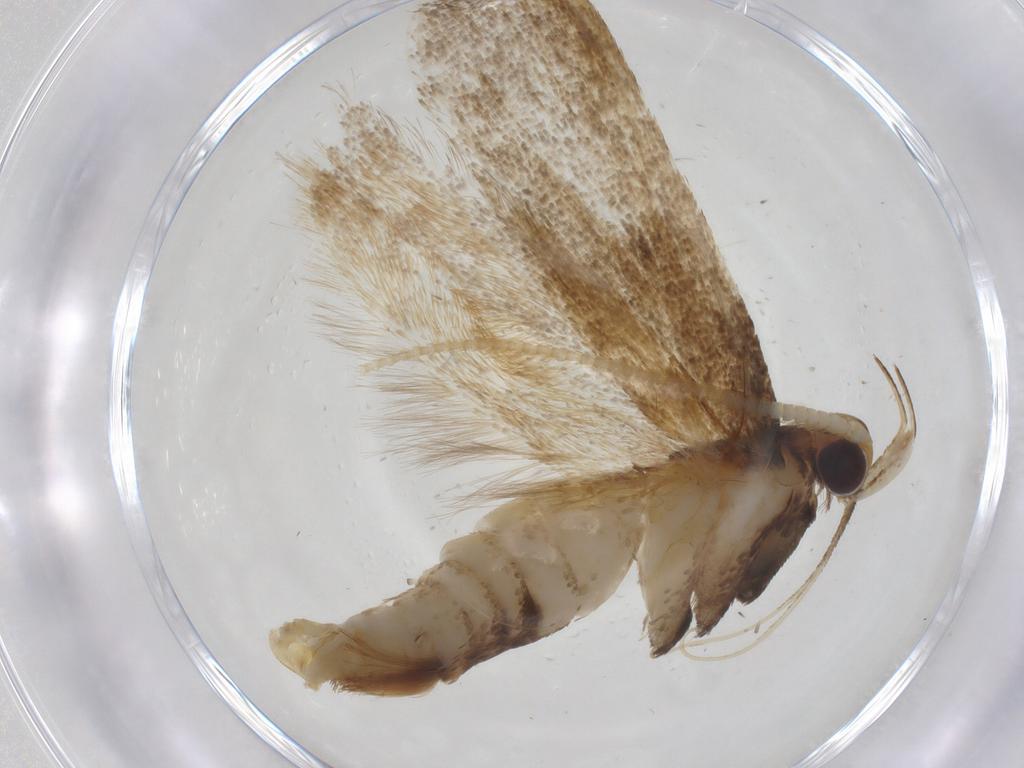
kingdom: Animalia
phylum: Arthropoda
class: Insecta
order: Lepidoptera
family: Lecithoceridae
